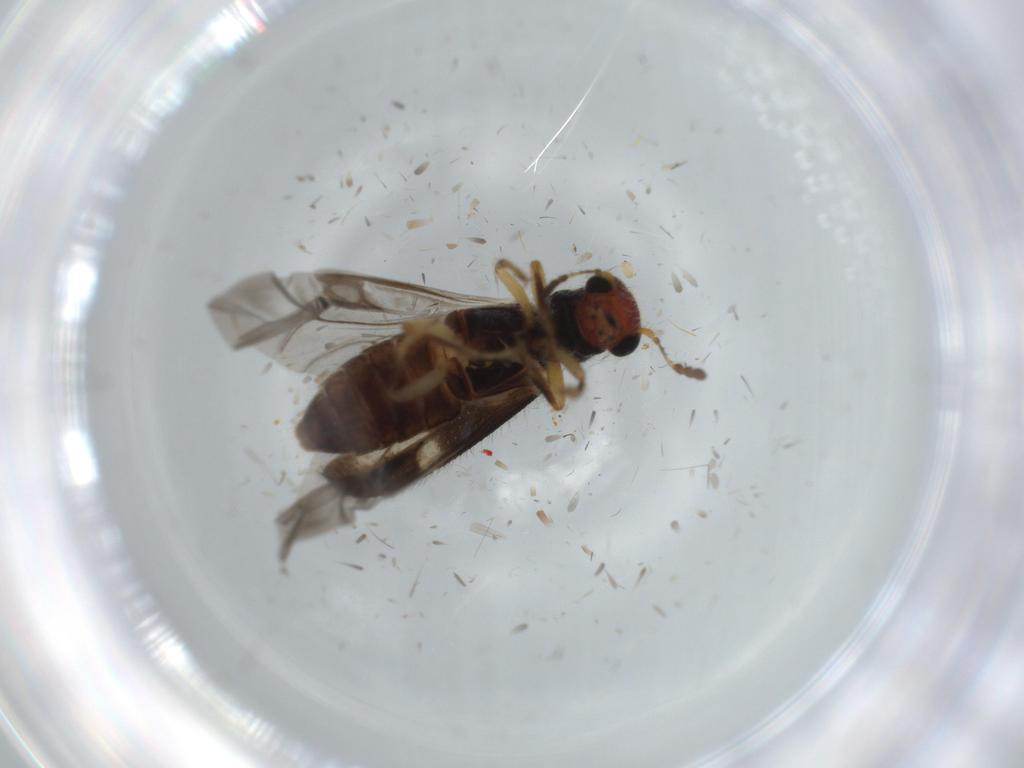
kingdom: Animalia
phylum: Arthropoda
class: Insecta
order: Coleoptera
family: Cleridae
